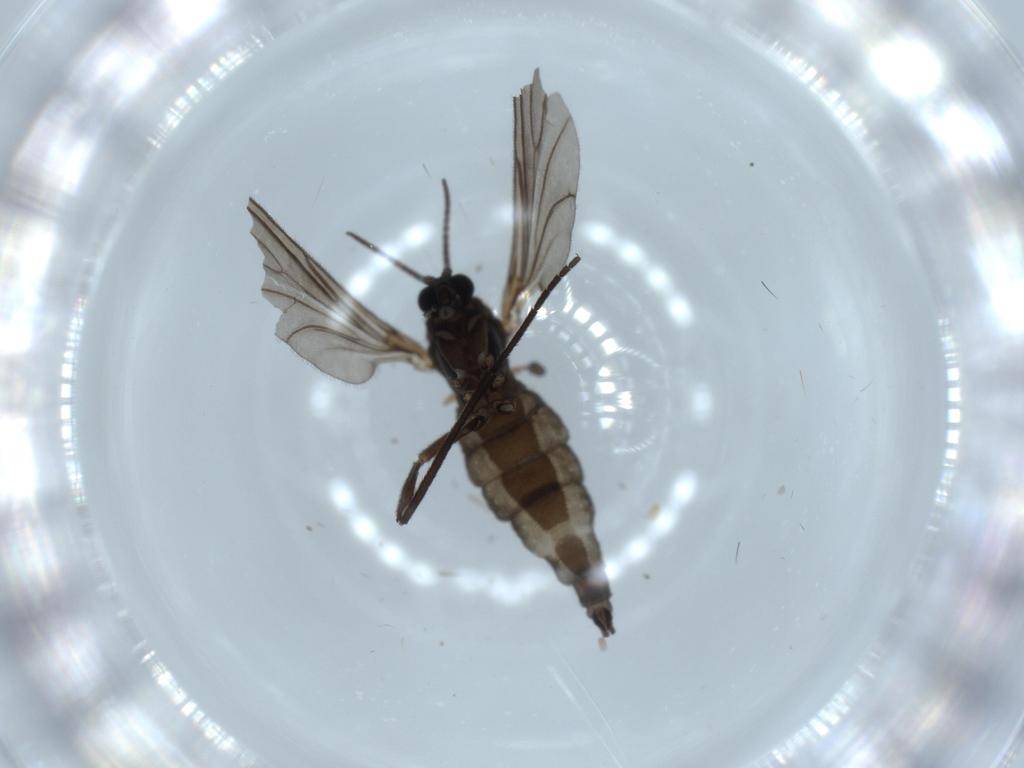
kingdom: Animalia
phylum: Arthropoda
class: Insecta
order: Diptera
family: Sciaridae
